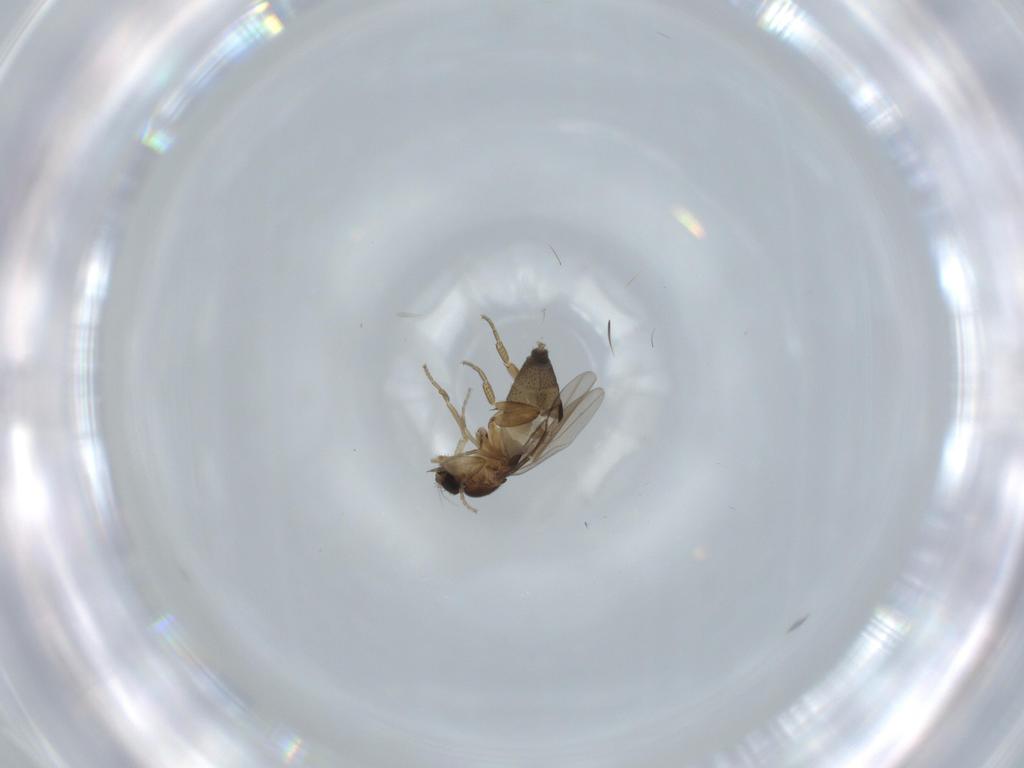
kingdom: Animalia
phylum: Arthropoda
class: Insecta
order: Diptera
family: Phoridae
